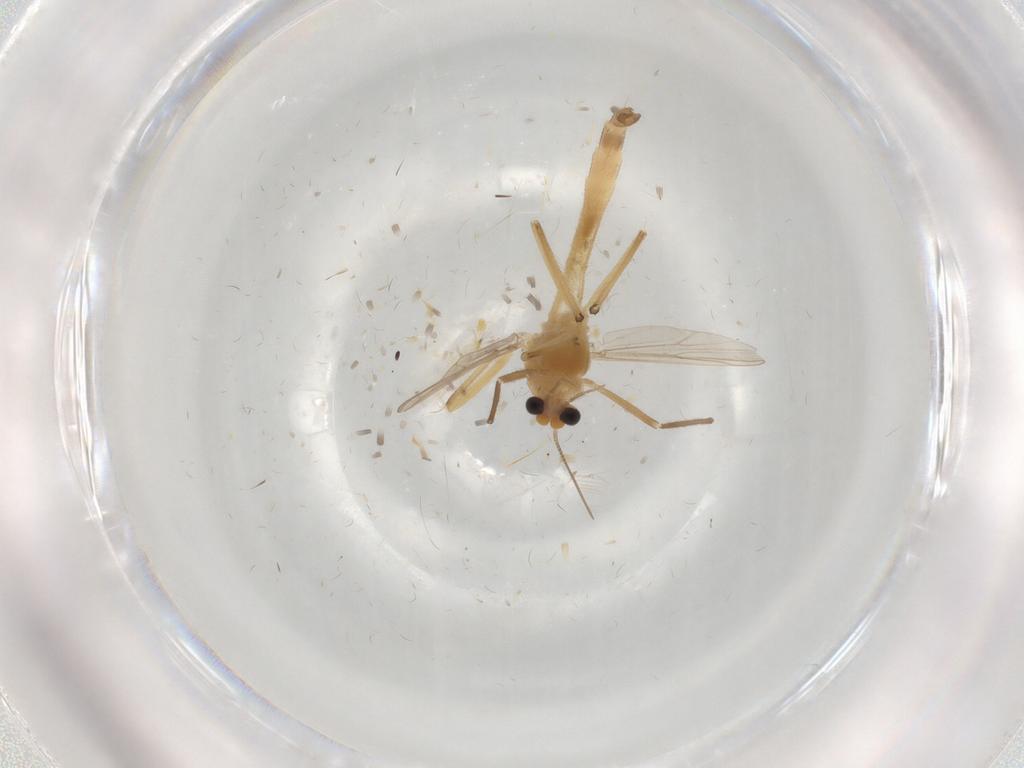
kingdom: Animalia
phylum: Arthropoda
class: Insecta
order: Diptera
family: Chironomidae
